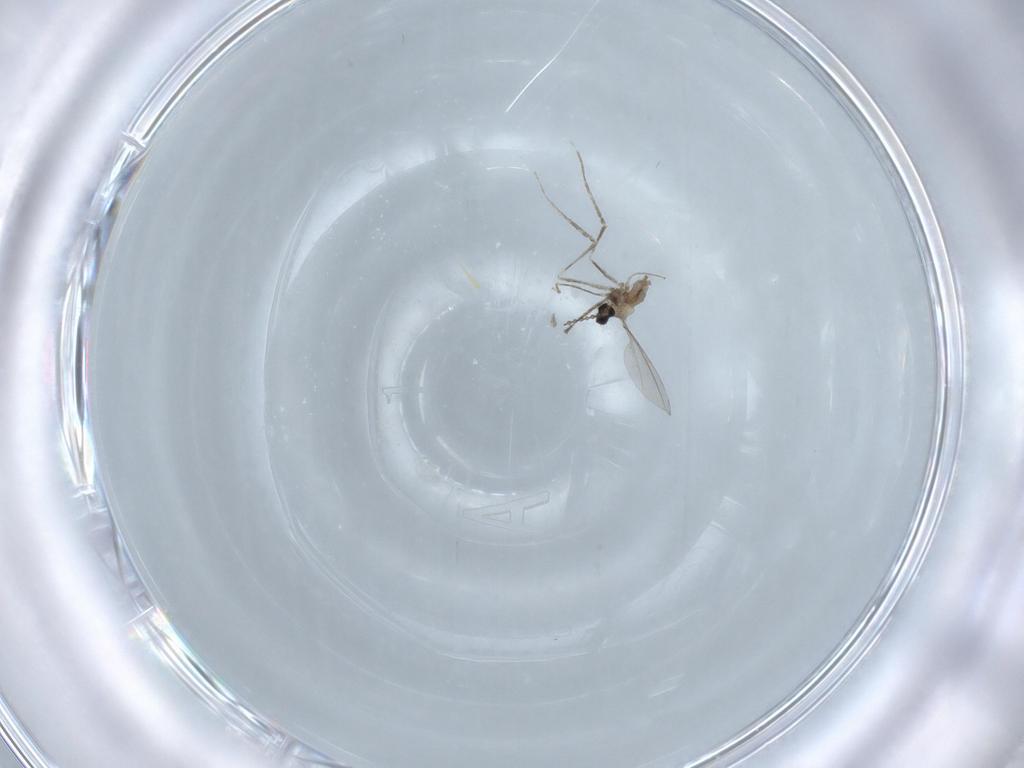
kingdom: Animalia
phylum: Arthropoda
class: Insecta
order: Diptera
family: Cecidomyiidae
